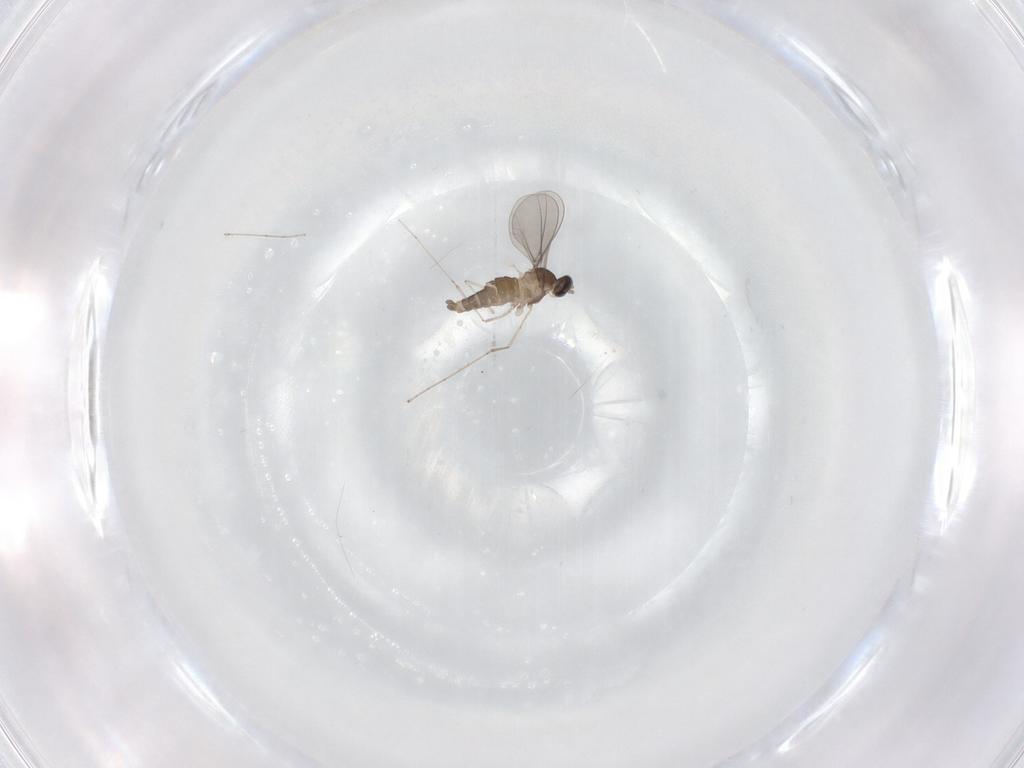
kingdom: Animalia
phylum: Arthropoda
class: Insecta
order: Diptera
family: Cecidomyiidae
